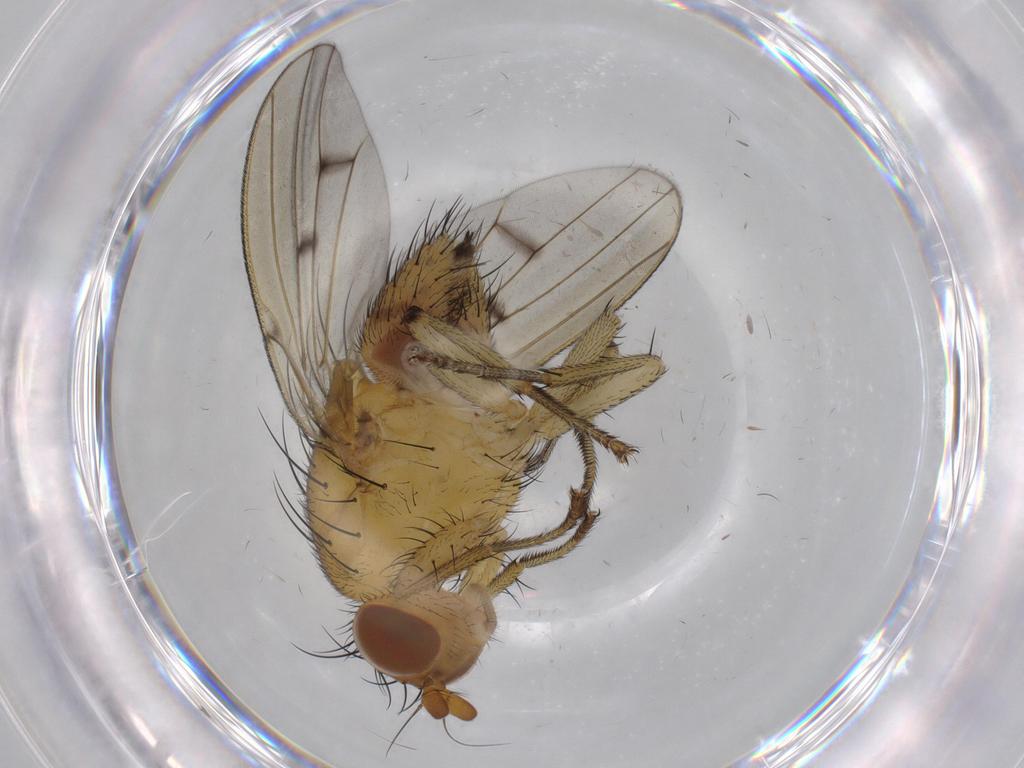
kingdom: Animalia
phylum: Arthropoda
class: Insecta
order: Diptera
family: Limoniidae
